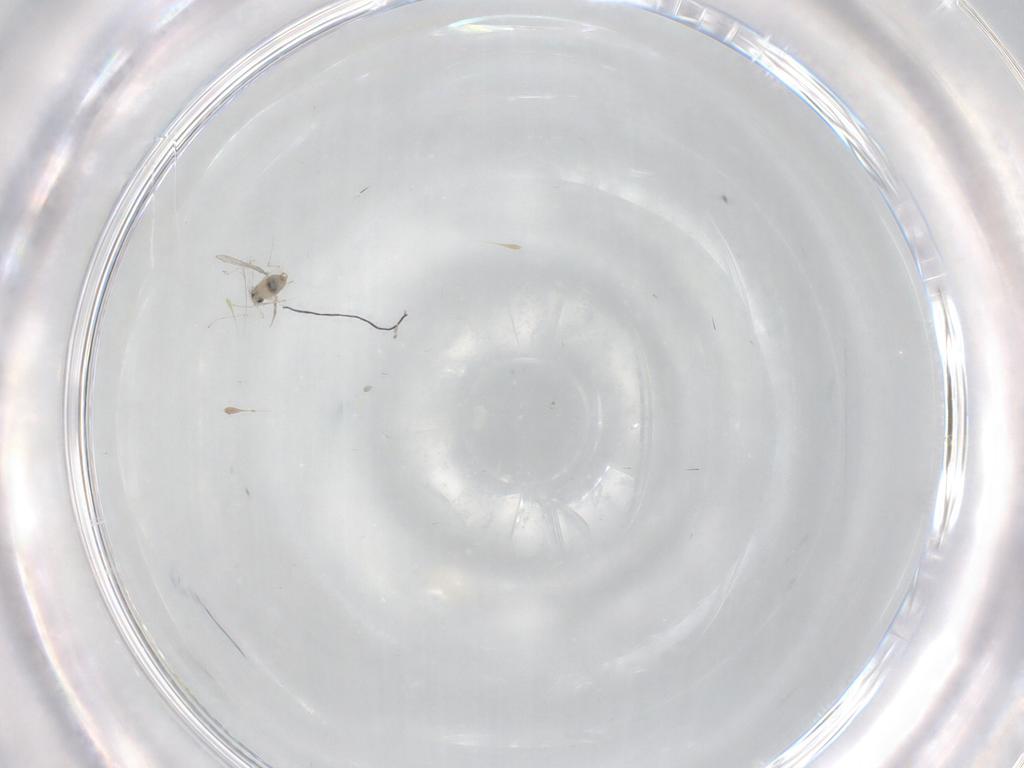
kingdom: Animalia
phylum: Arthropoda
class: Insecta
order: Diptera
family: Cecidomyiidae
